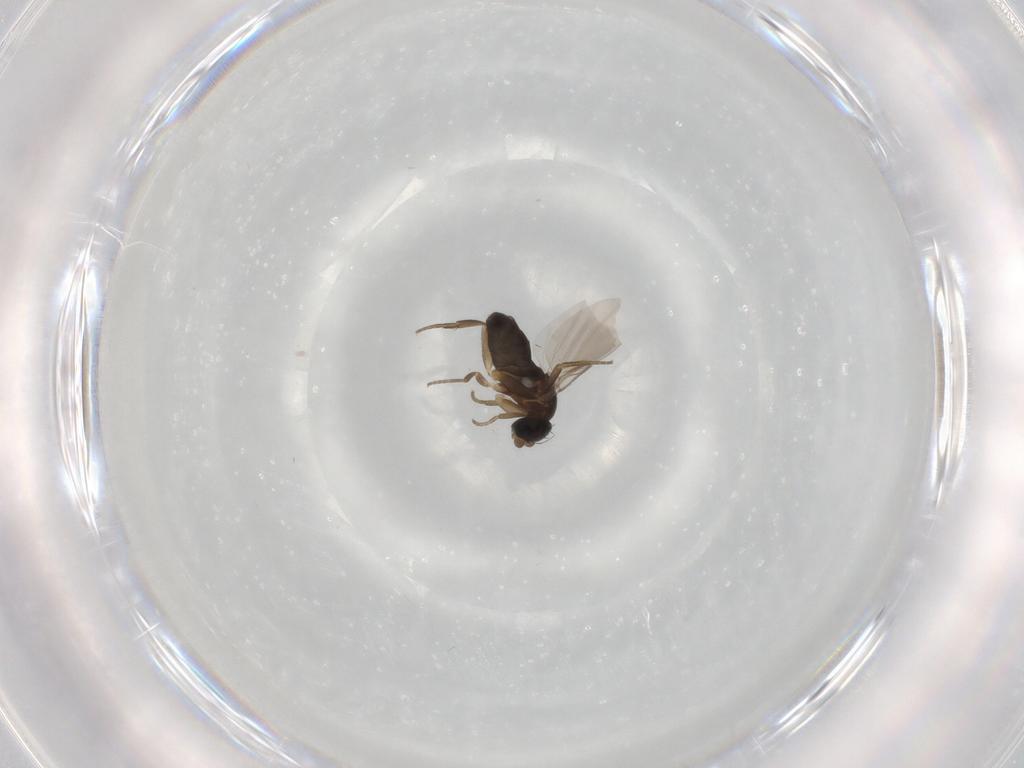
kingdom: Animalia
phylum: Arthropoda
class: Insecta
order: Diptera
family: Phoridae
